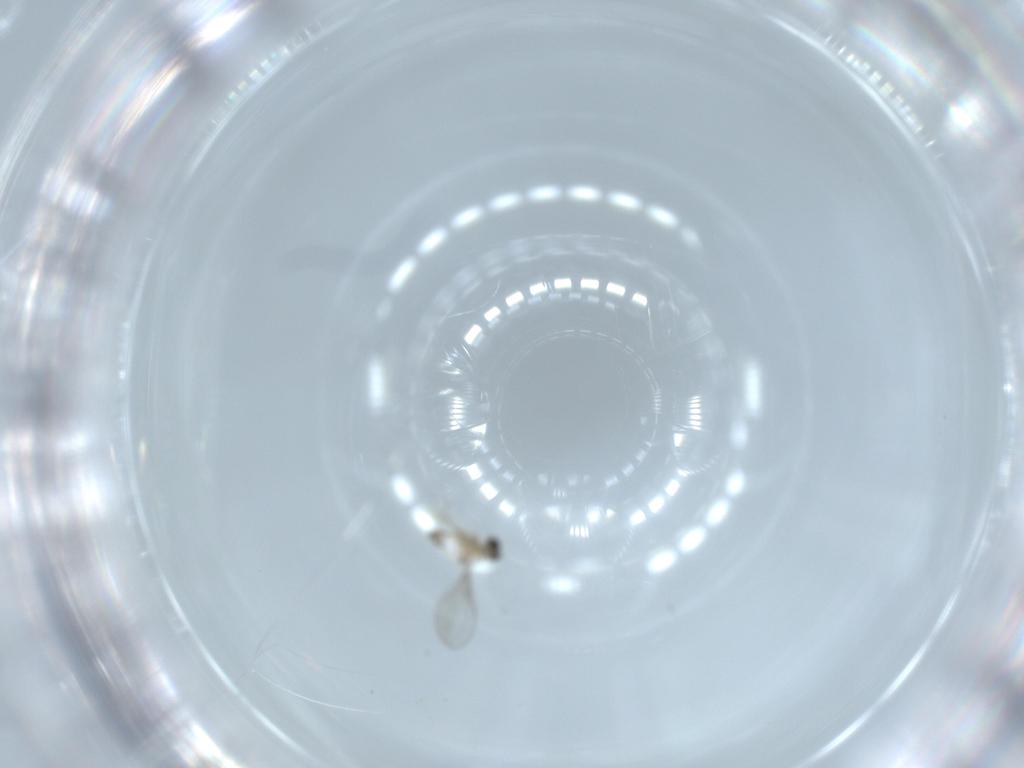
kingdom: Animalia
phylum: Arthropoda
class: Insecta
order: Diptera
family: Cecidomyiidae
